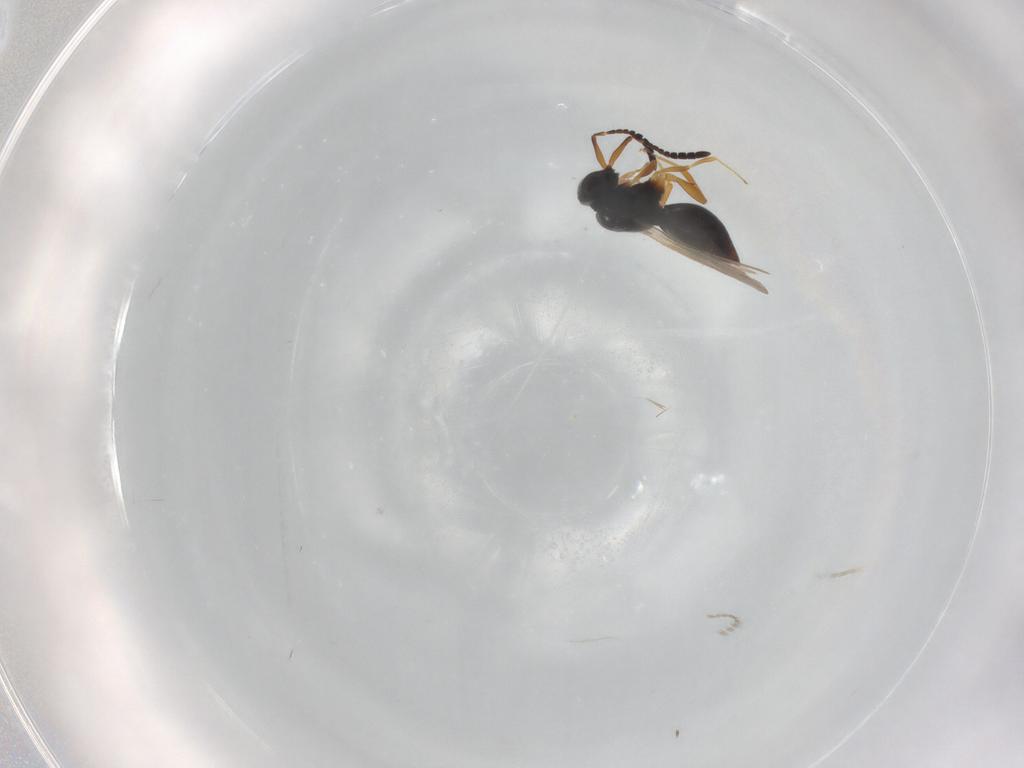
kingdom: Animalia
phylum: Arthropoda
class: Insecta
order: Hymenoptera
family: Ceraphronidae
